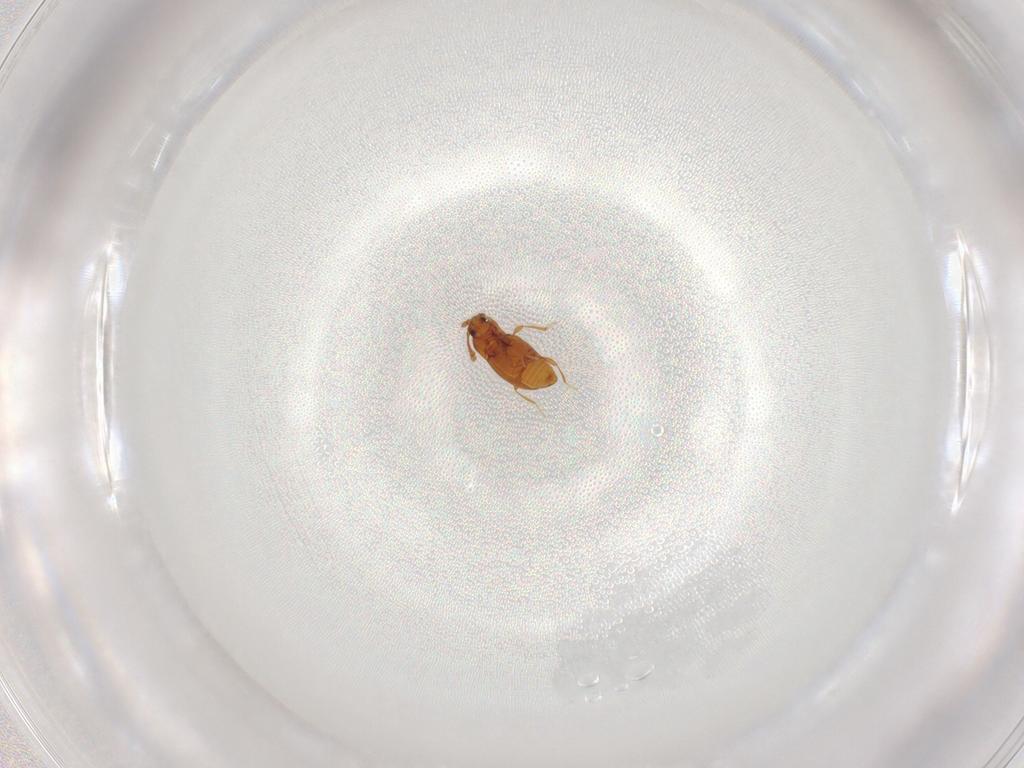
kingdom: Animalia
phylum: Arthropoda
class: Insecta
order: Coleoptera
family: Staphylinidae
